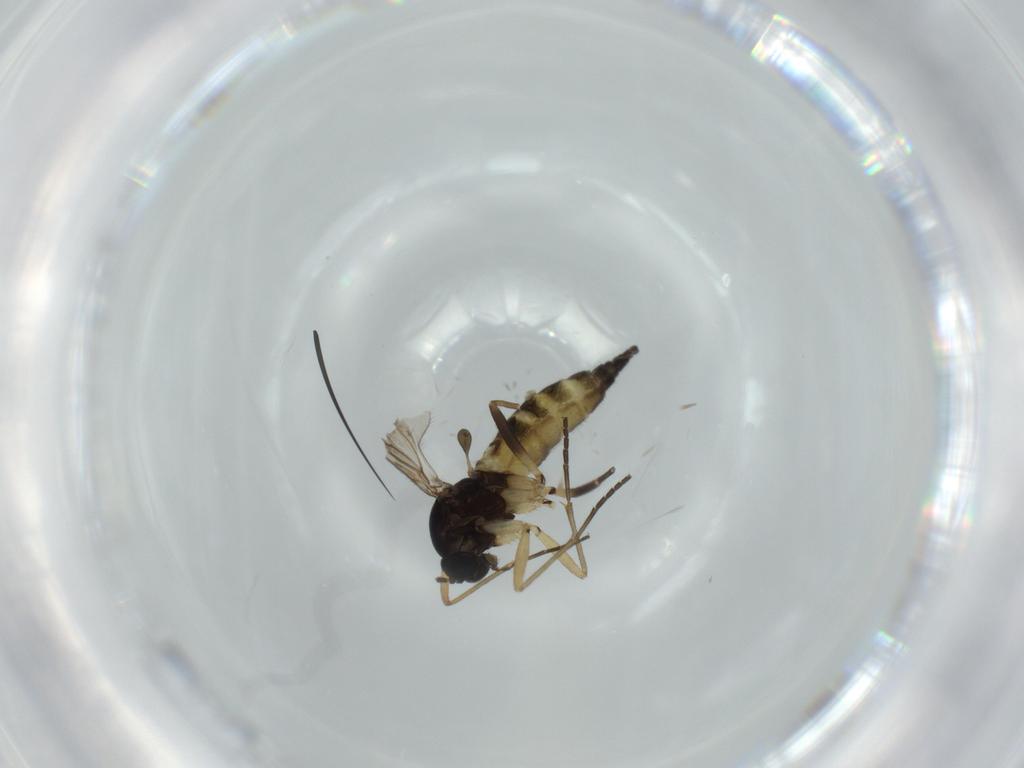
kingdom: Animalia
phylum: Arthropoda
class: Insecta
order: Diptera
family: Sciaridae
